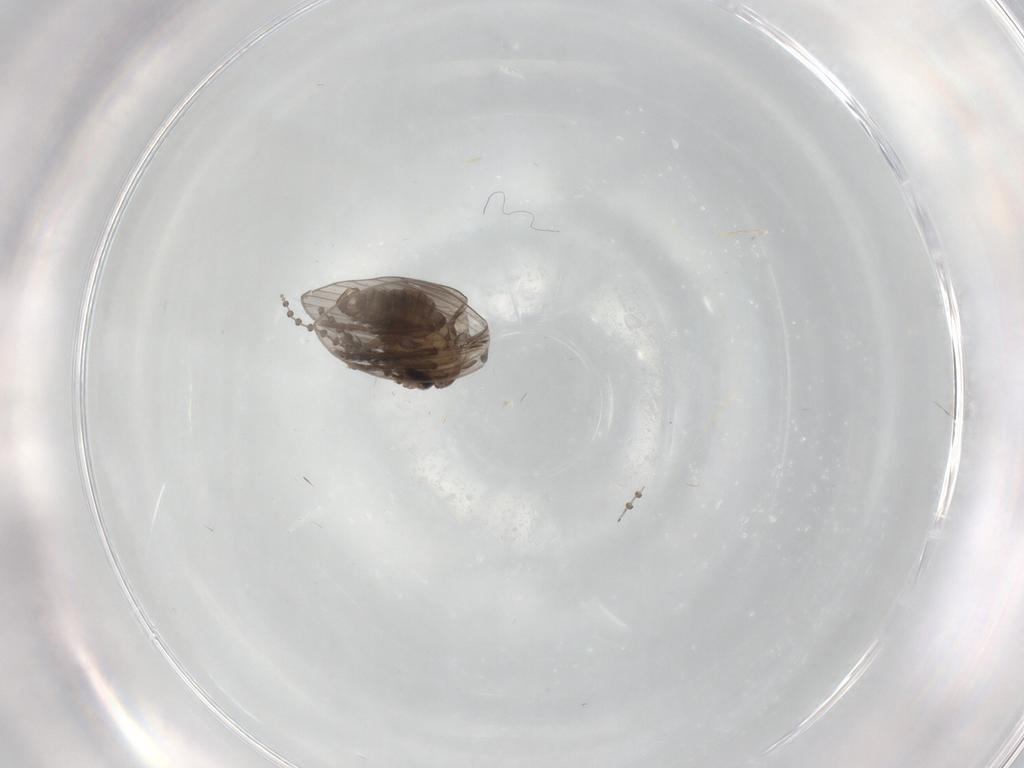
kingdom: Animalia
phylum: Arthropoda
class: Insecta
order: Diptera
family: Psychodidae
